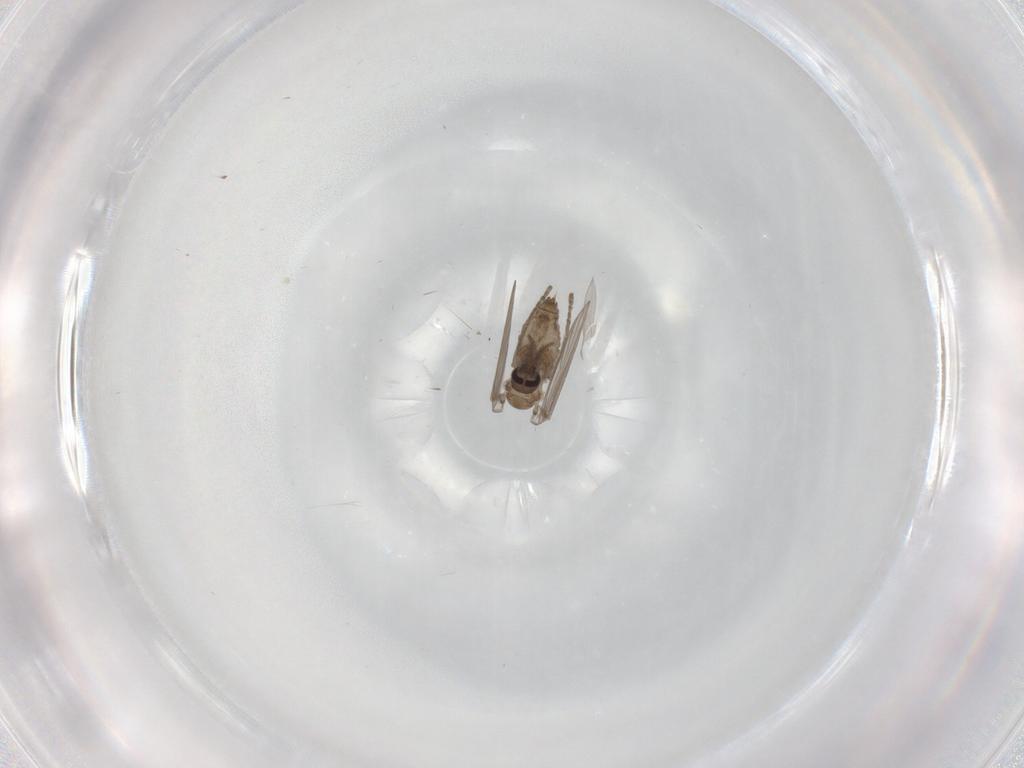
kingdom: Animalia
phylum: Arthropoda
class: Insecta
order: Diptera
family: Psychodidae
